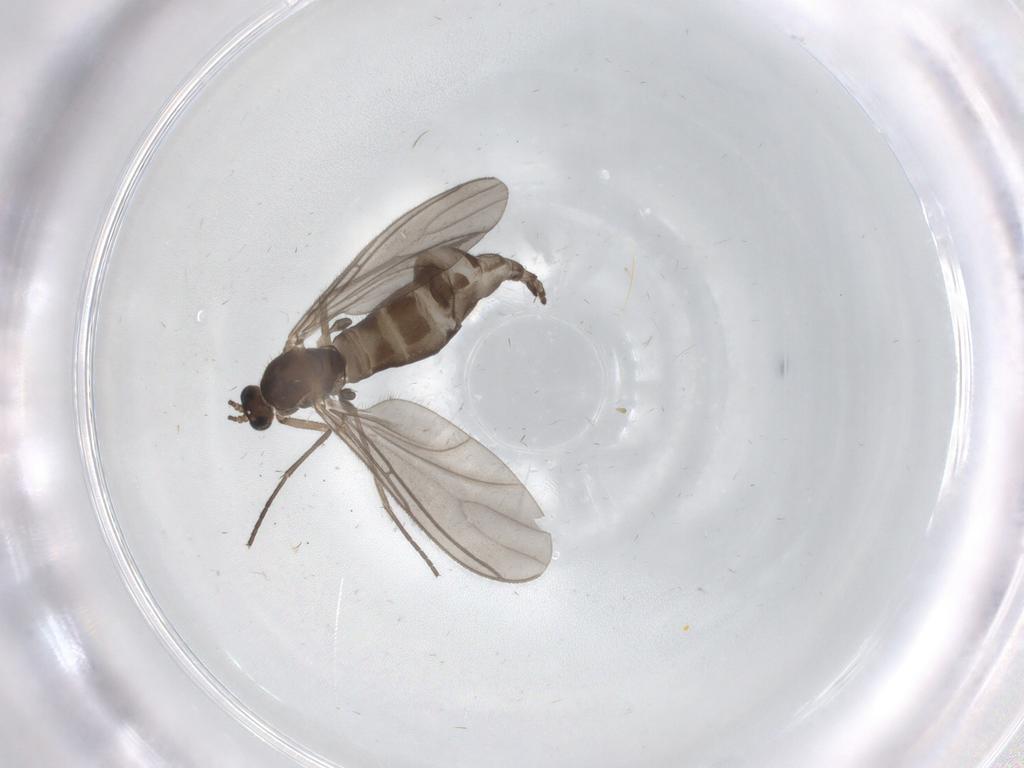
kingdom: Animalia
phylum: Arthropoda
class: Insecta
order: Diptera
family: Sciaridae
